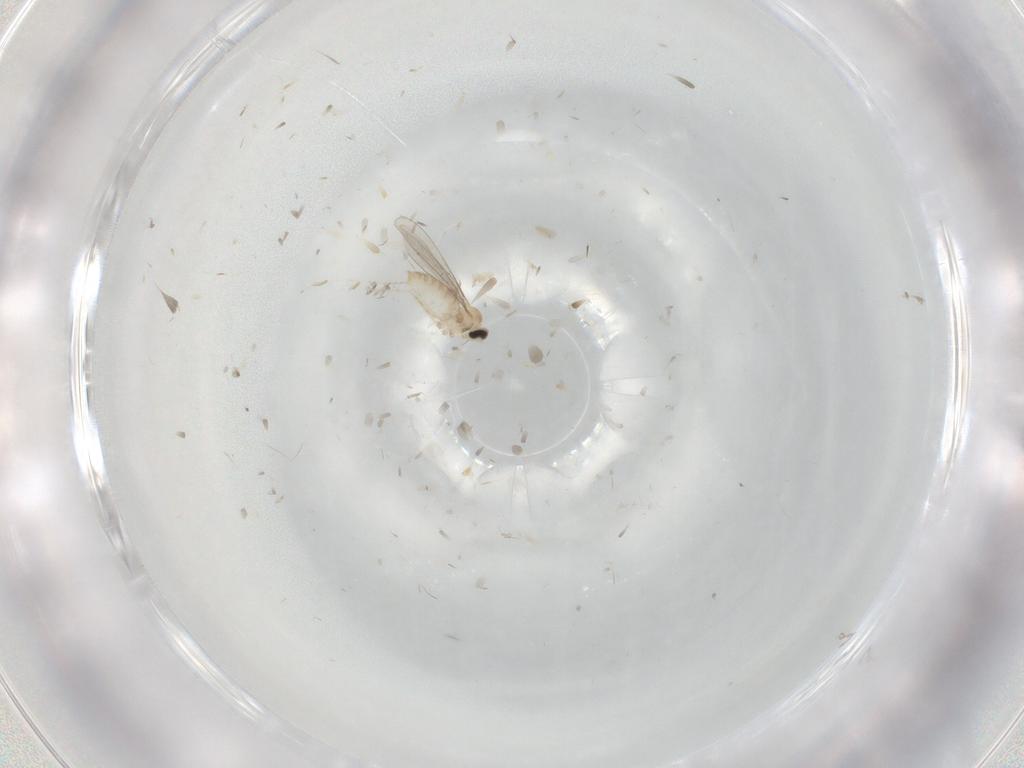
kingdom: Animalia
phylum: Arthropoda
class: Insecta
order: Diptera
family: Cecidomyiidae
